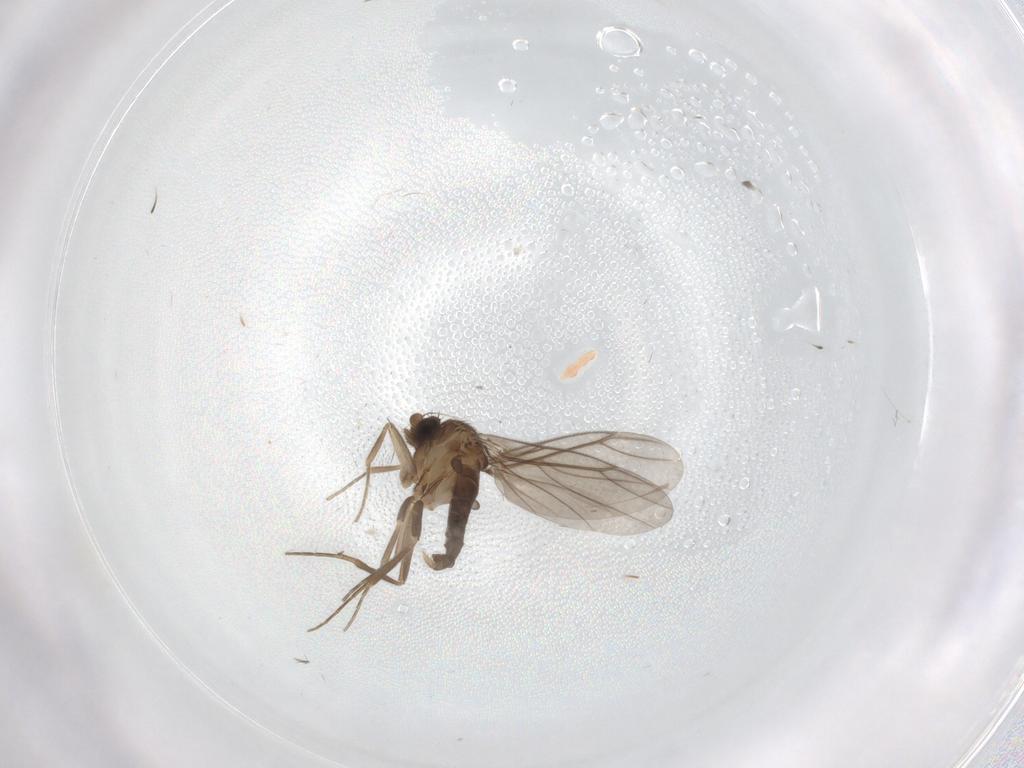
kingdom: Animalia
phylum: Arthropoda
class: Insecta
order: Diptera
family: Phoridae
